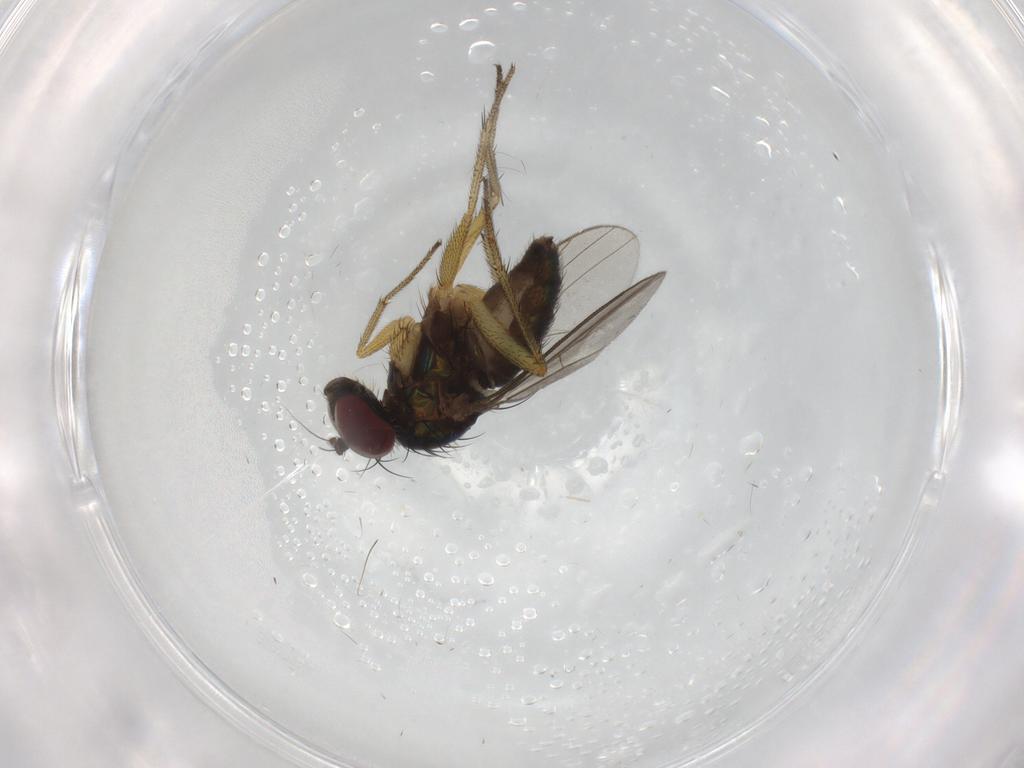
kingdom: Animalia
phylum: Arthropoda
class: Insecta
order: Diptera
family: Dolichopodidae
